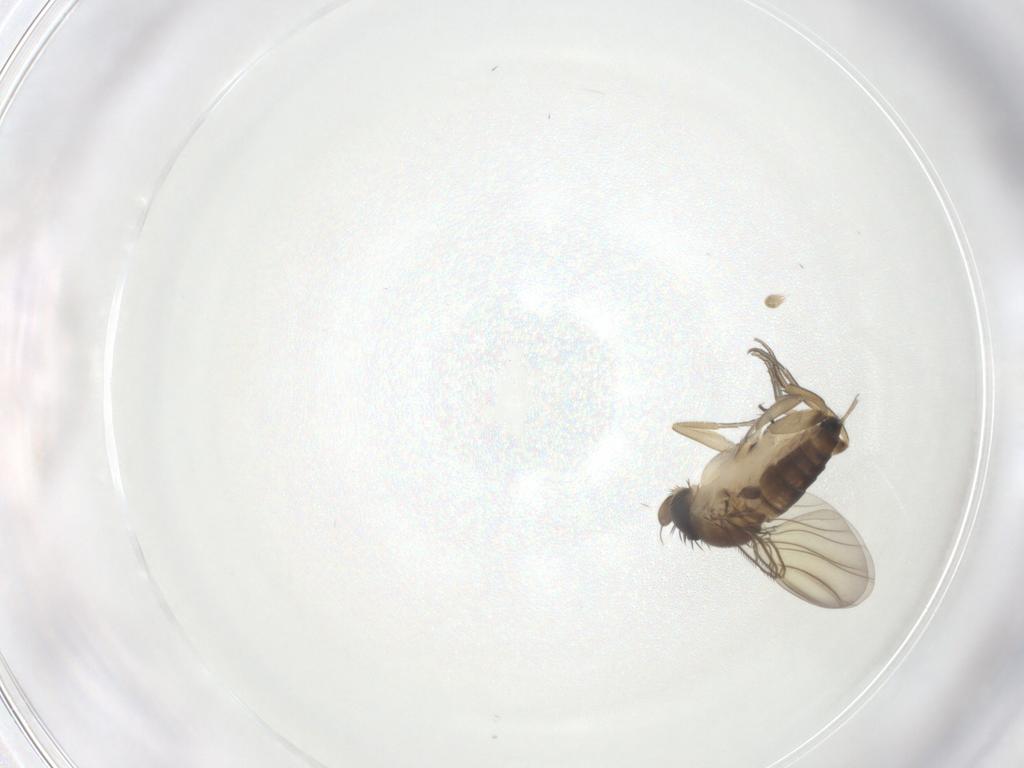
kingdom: Animalia
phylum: Arthropoda
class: Insecta
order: Diptera
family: Phoridae
